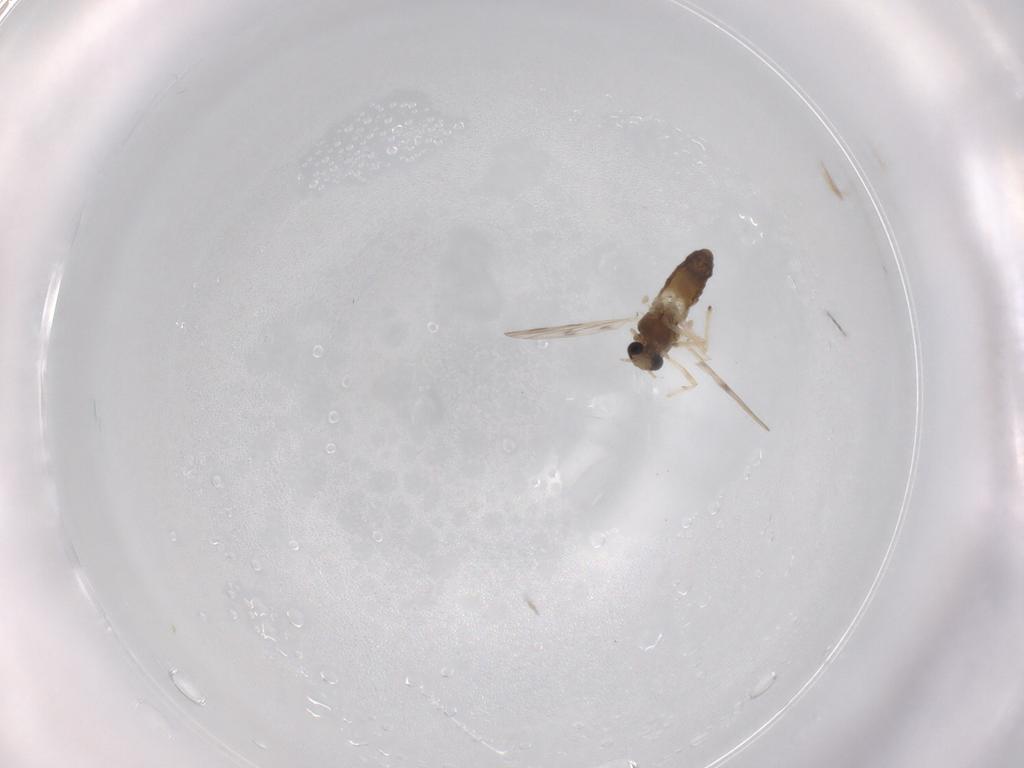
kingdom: Animalia
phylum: Arthropoda
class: Insecta
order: Diptera
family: Chironomidae
